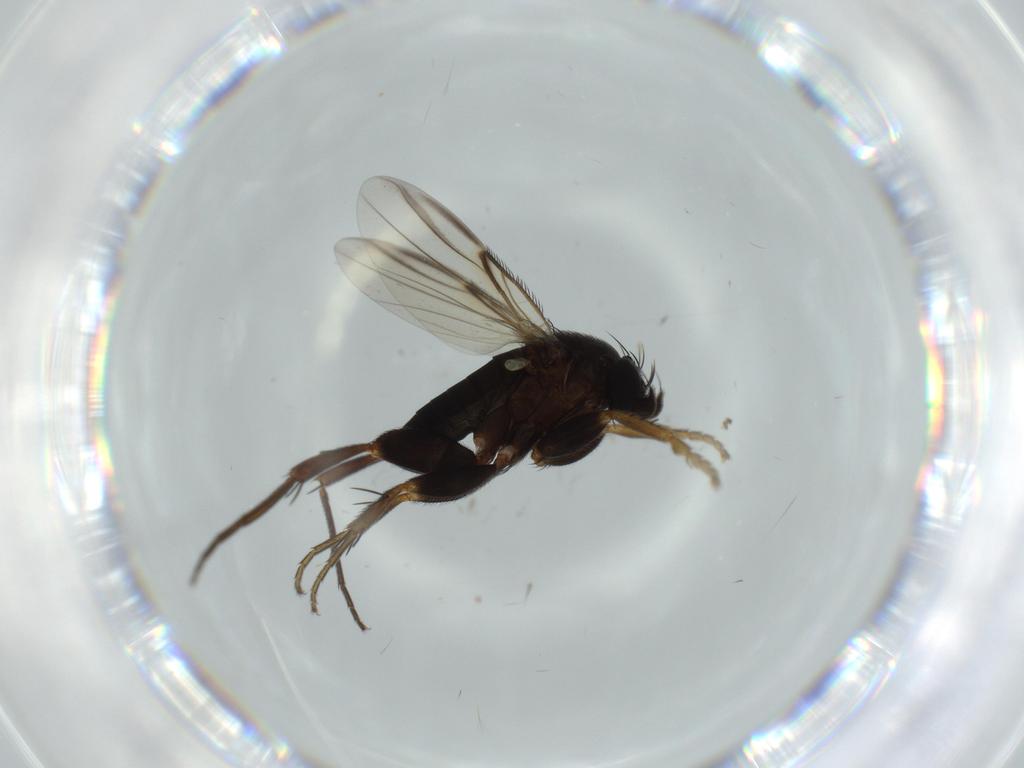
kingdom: Animalia
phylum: Arthropoda
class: Insecta
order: Diptera
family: Phoridae
